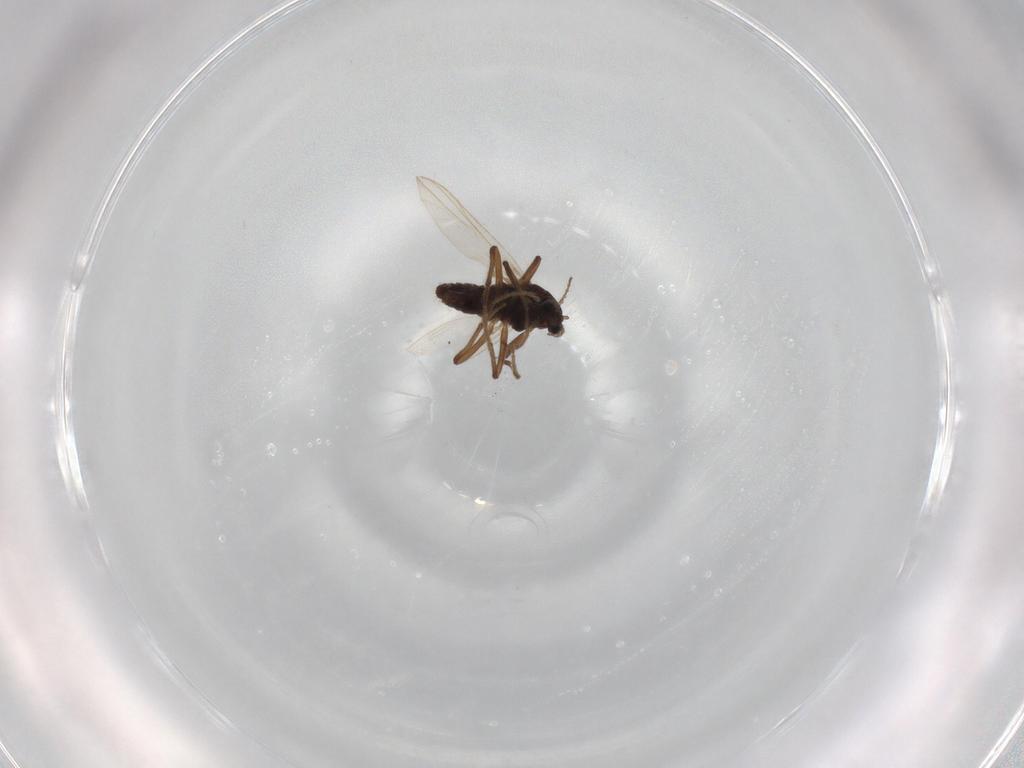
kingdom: Animalia
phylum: Arthropoda
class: Insecta
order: Diptera
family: Chironomidae
